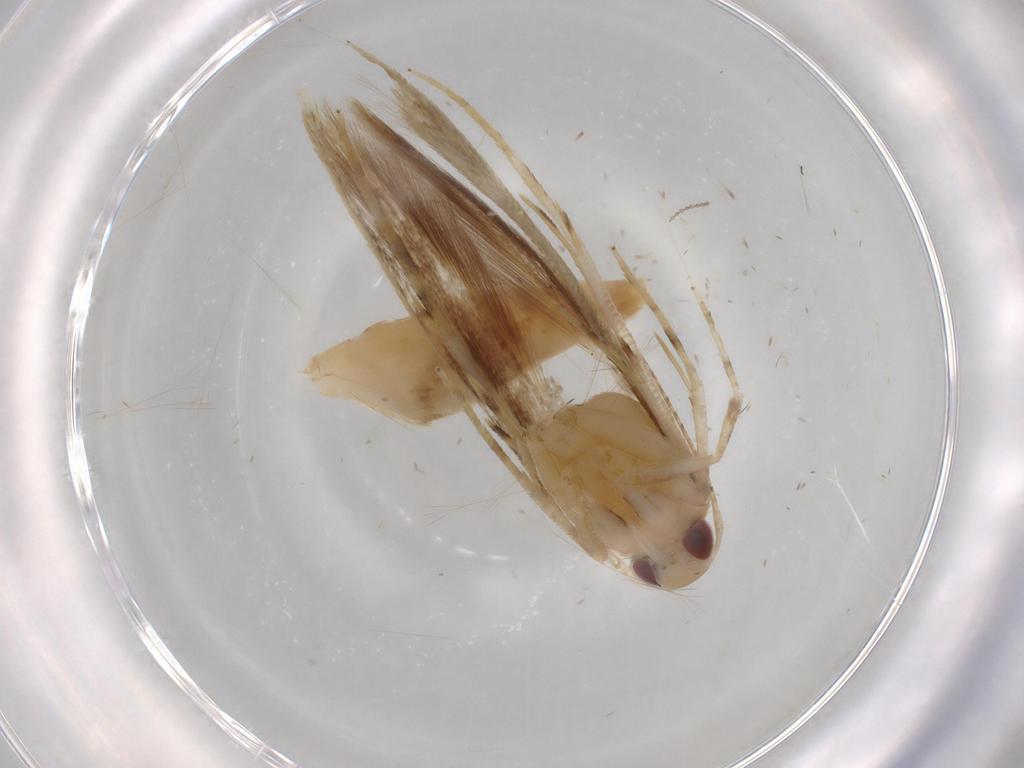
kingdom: Animalia
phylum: Arthropoda
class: Insecta
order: Lepidoptera
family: Cosmopterigidae
